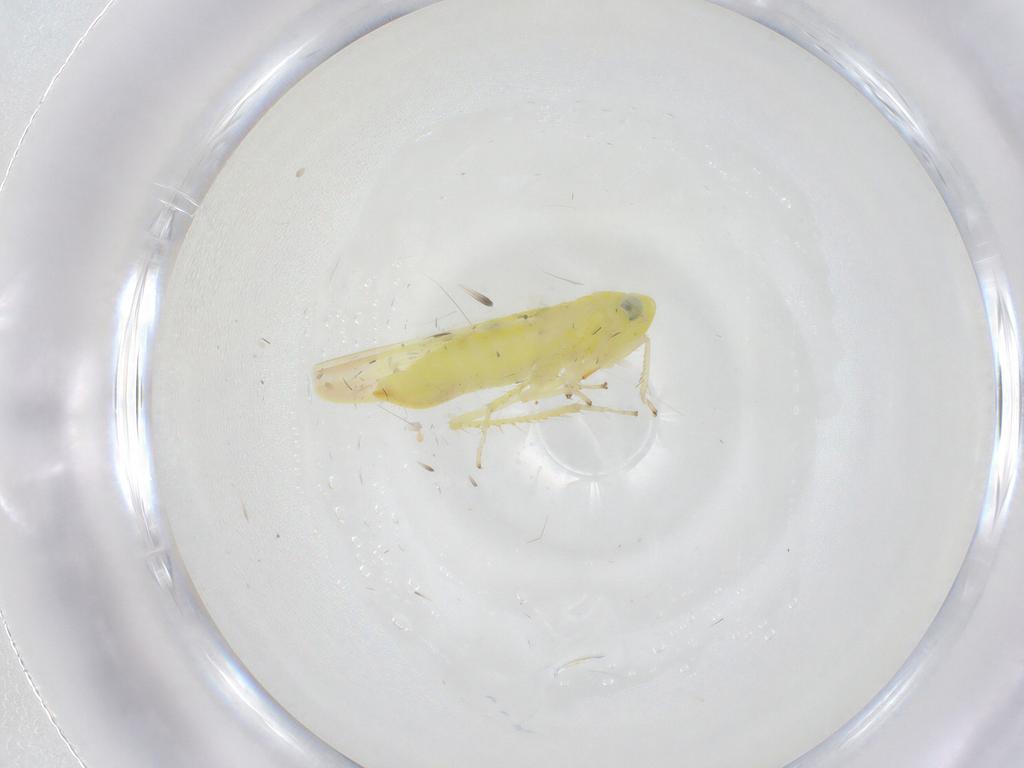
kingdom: Animalia
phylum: Arthropoda
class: Insecta
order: Hemiptera
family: Cicadellidae
